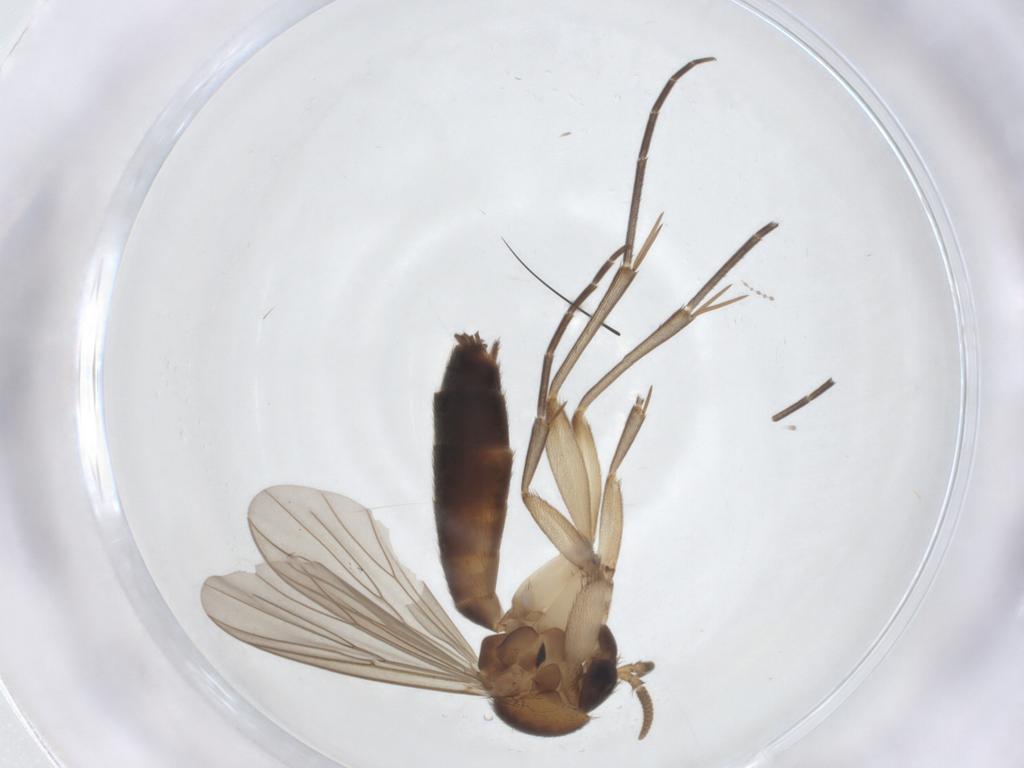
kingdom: Animalia
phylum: Arthropoda
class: Insecta
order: Diptera
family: Mycetophilidae
